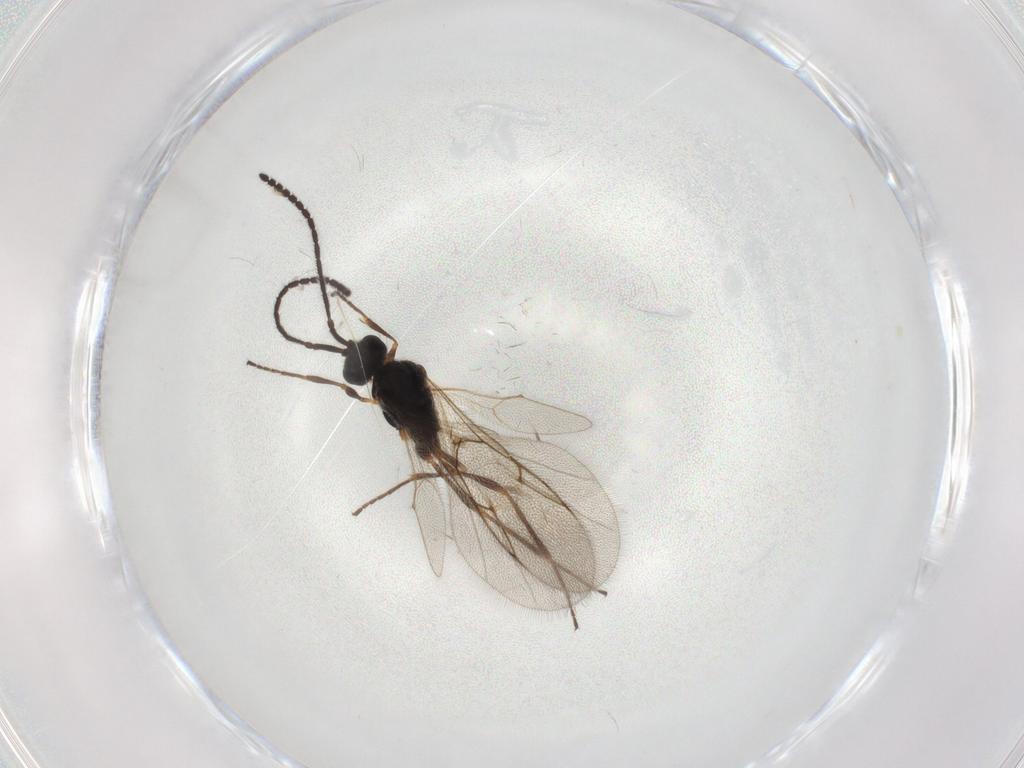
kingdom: Animalia
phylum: Arthropoda
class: Insecta
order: Hymenoptera
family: Diapriidae
